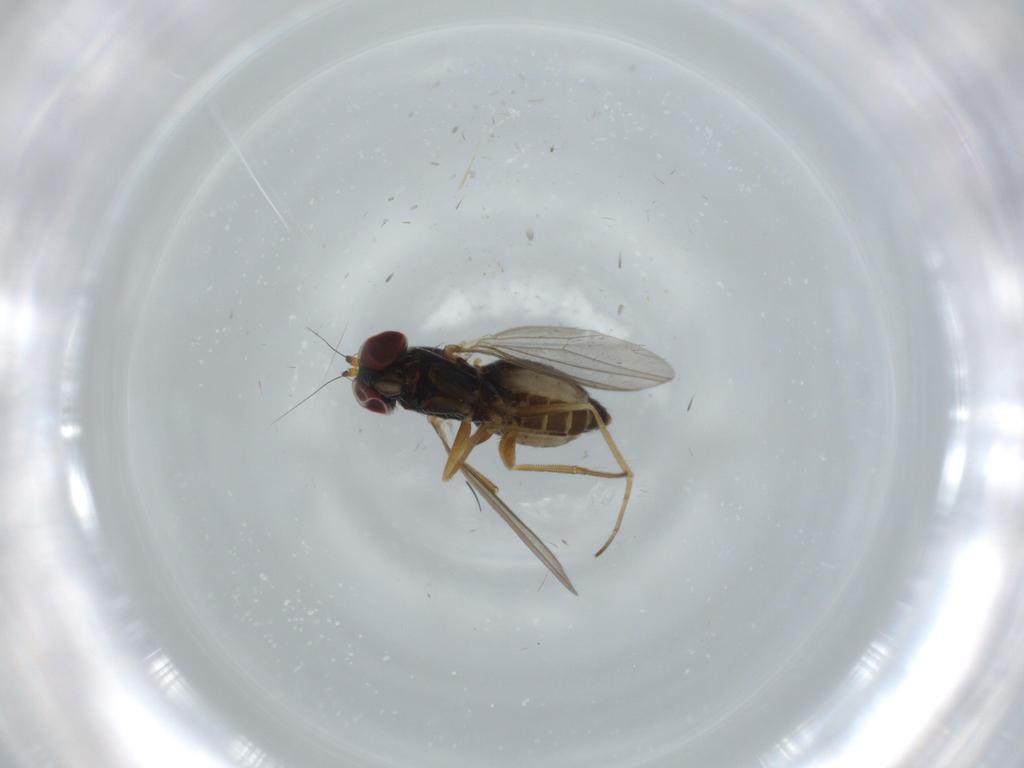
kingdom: Animalia
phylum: Arthropoda
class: Insecta
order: Diptera
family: Dolichopodidae
